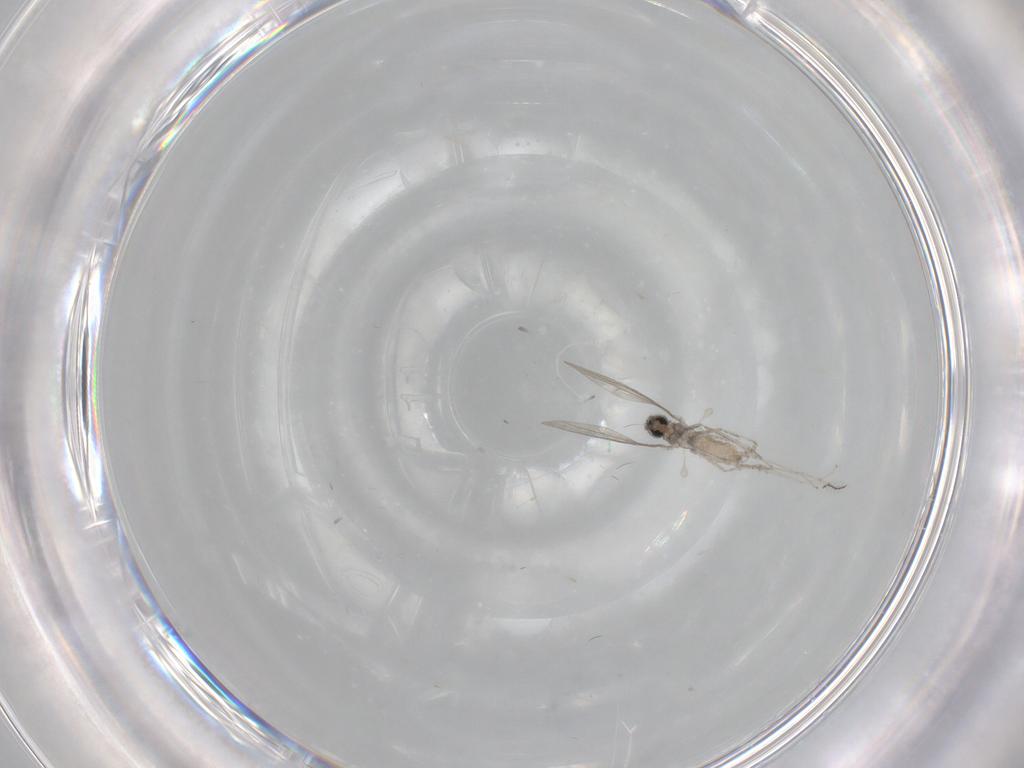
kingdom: Animalia
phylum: Arthropoda
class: Insecta
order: Diptera
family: Cecidomyiidae
